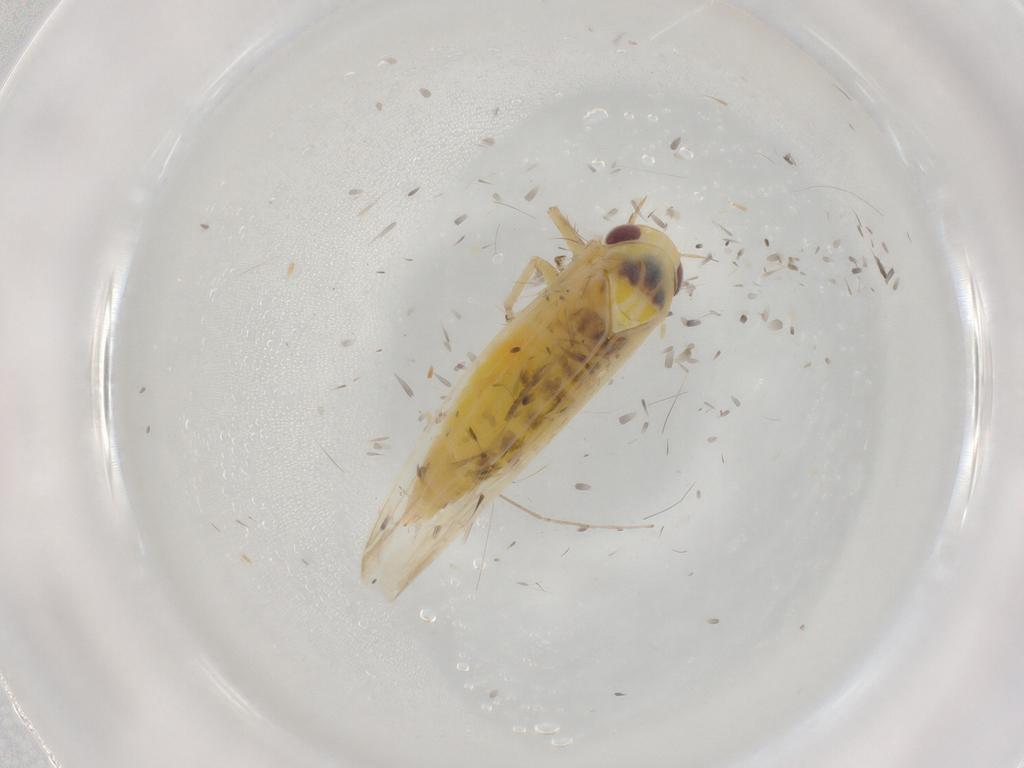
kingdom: Animalia
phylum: Arthropoda
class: Insecta
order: Hemiptera
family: Cicadellidae
